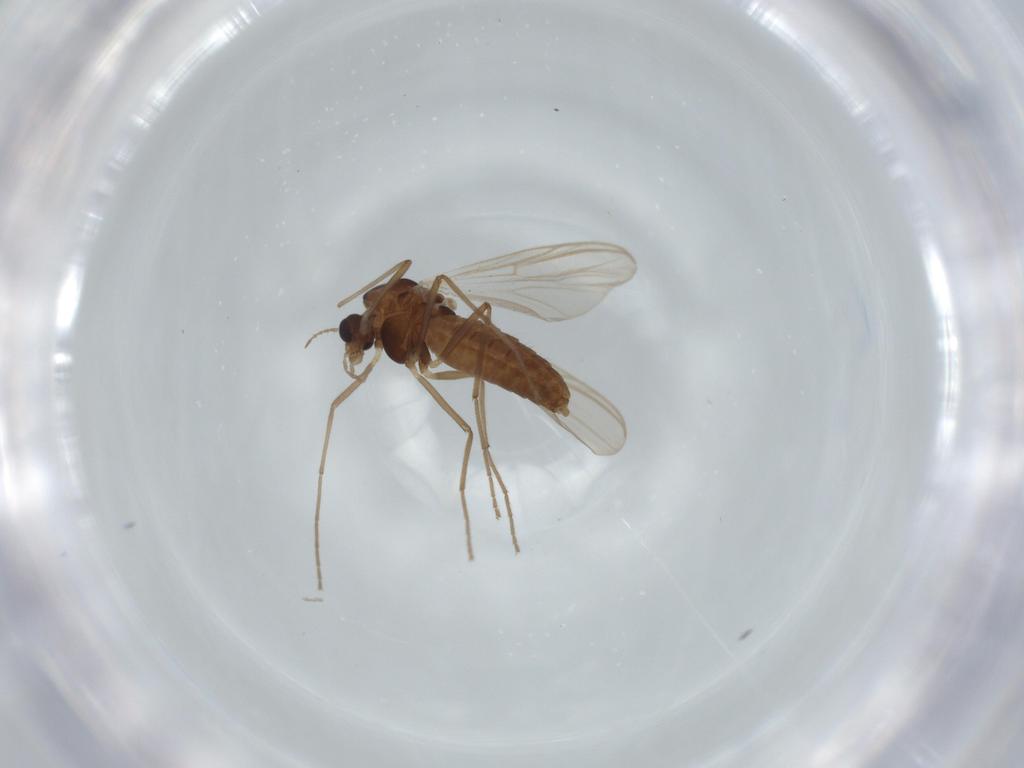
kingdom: Animalia
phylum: Arthropoda
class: Insecta
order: Diptera
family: Chironomidae
